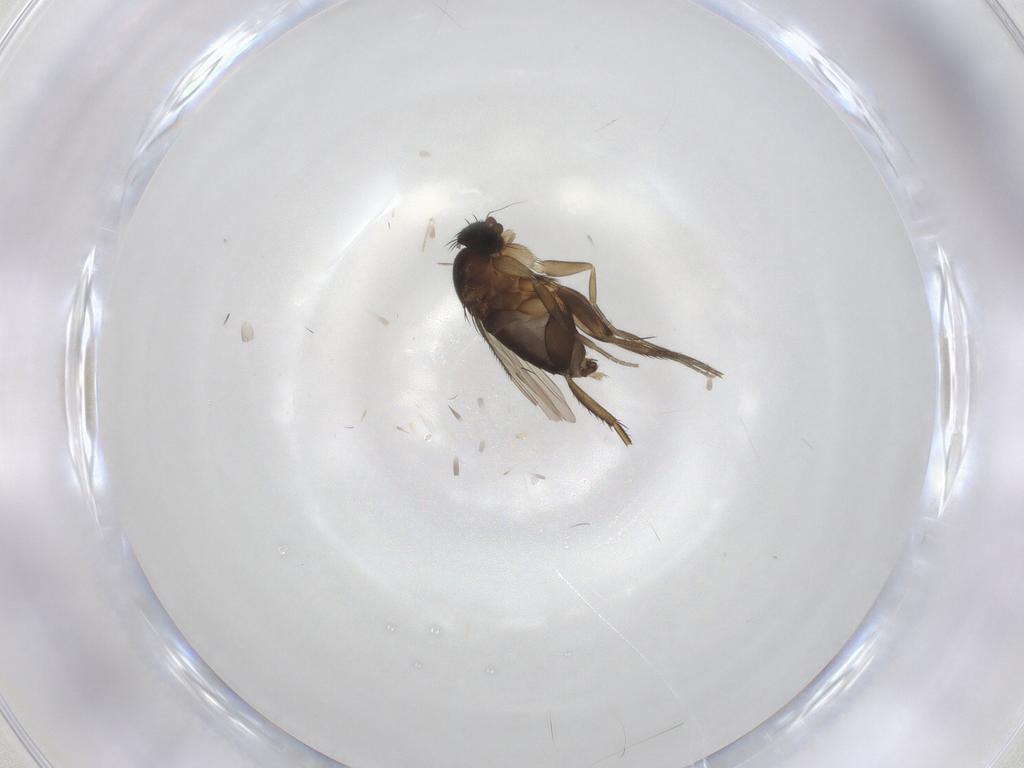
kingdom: Animalia
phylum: Arthropoda
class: Insecta
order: Diptera
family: Phoridae
